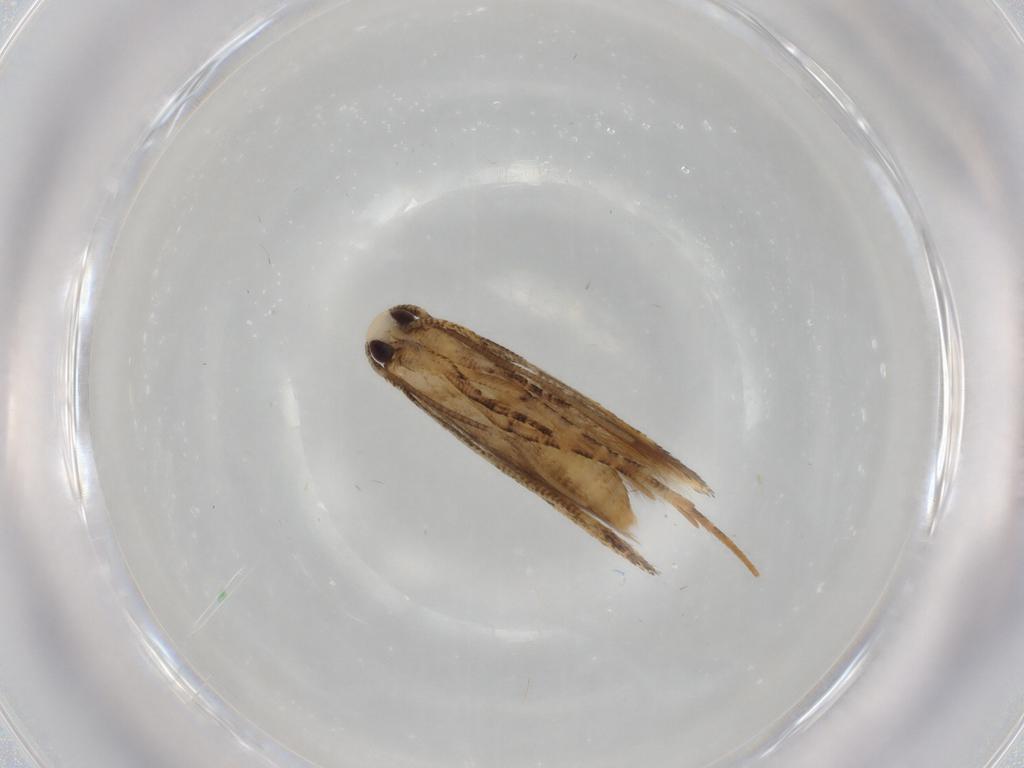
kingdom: Animalia
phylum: Arthropoda
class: Insecta
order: Lepidoptera
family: Cosmopterigidae
